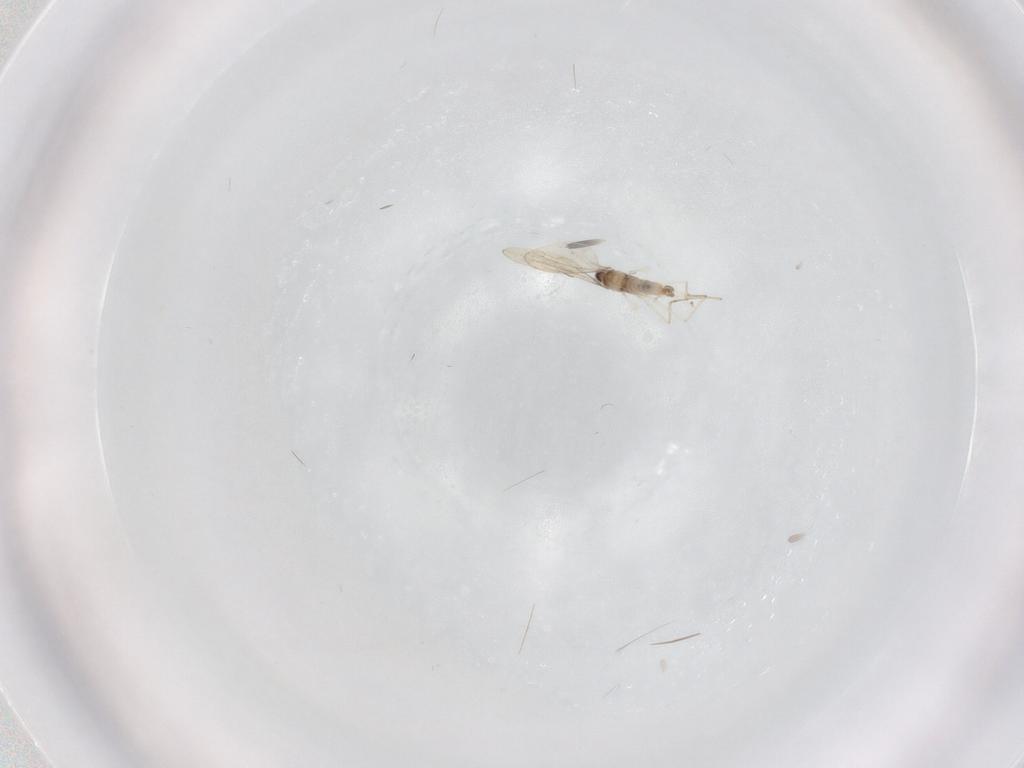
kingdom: Animalia
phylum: Arthropoda
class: Insecta
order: Diptera
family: Cecidomyiidae
